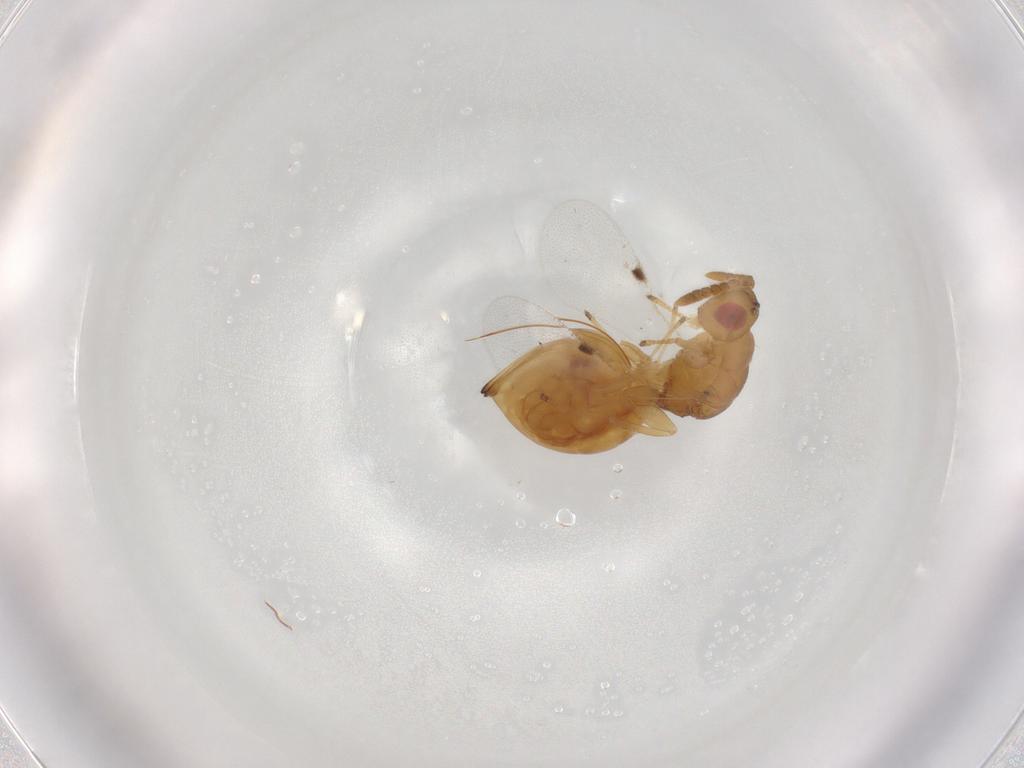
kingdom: Animalia
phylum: Arthropoda
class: Insecta
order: Hymenoptera
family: Eurytomidae
